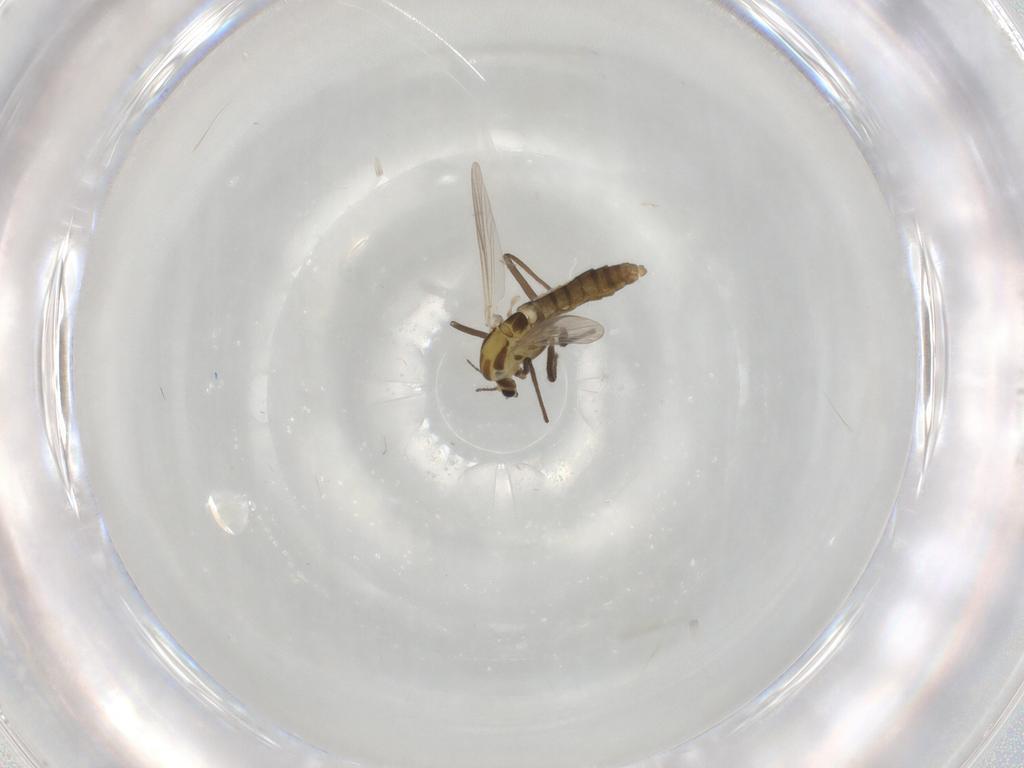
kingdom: Animalia
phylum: Arthropoda
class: Insecta
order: Diptera
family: Chironomidae
